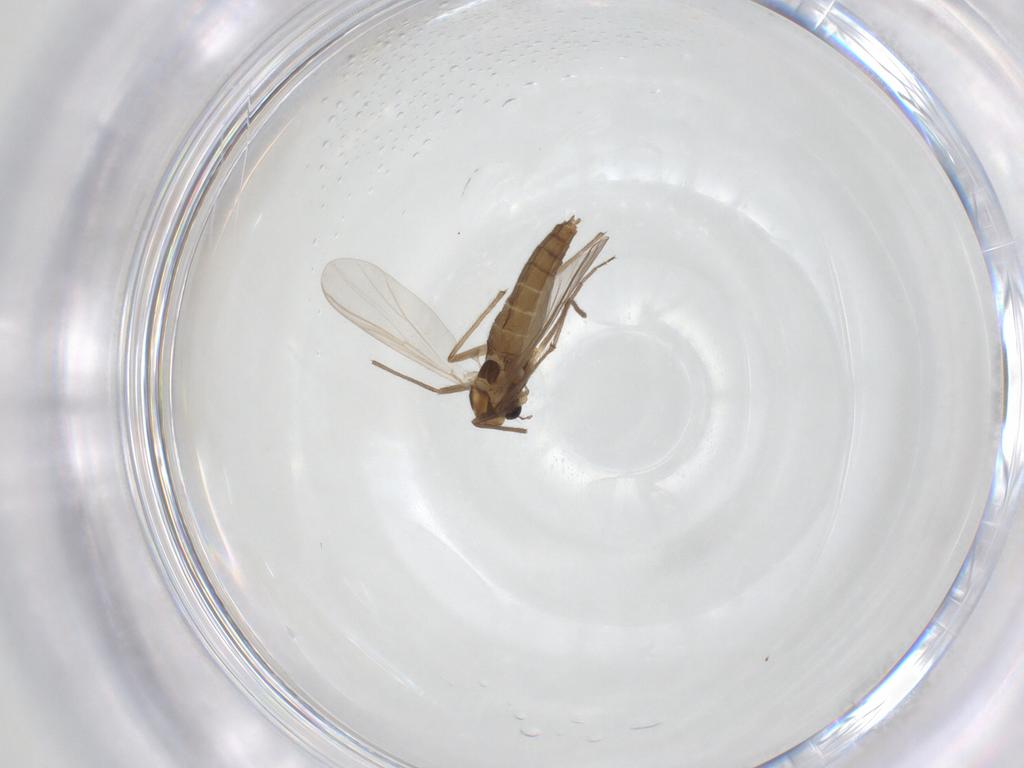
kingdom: Animalia
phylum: Arthropoda
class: Insecta
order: Diptera
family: Chironomidae
